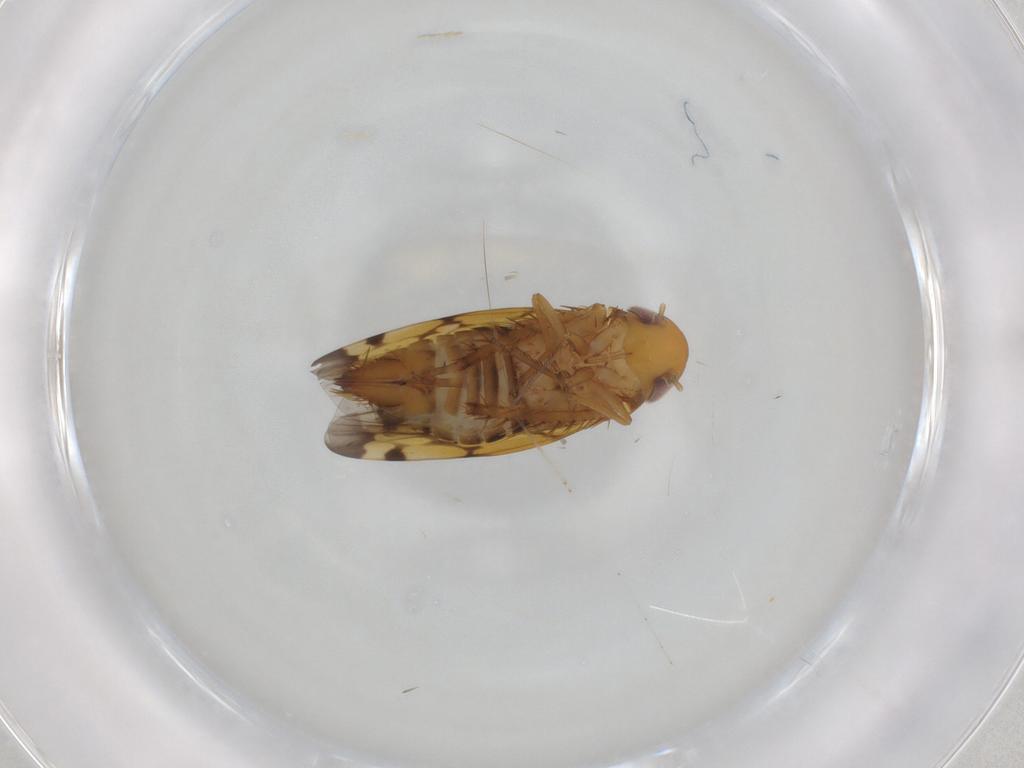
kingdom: Animalia
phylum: Arthropoda
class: Insecta
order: Hemiptera
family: Cicadellidae
